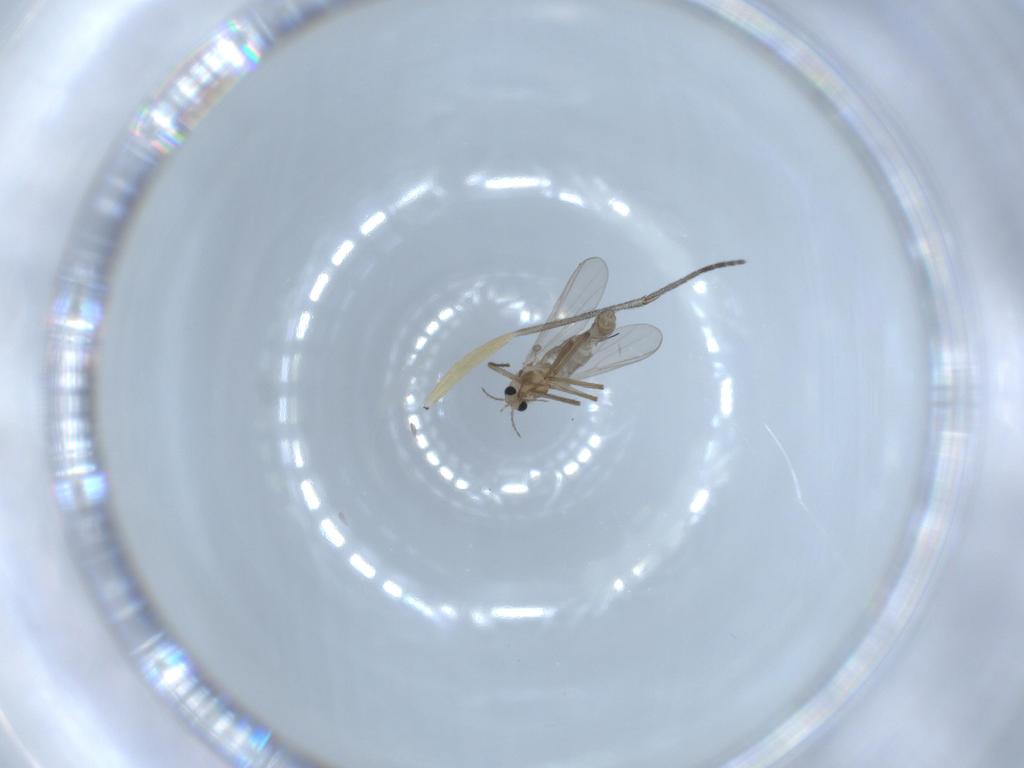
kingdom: Animalia
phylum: Arthropoda
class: Insecta
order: Diptera
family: Chironomidae
